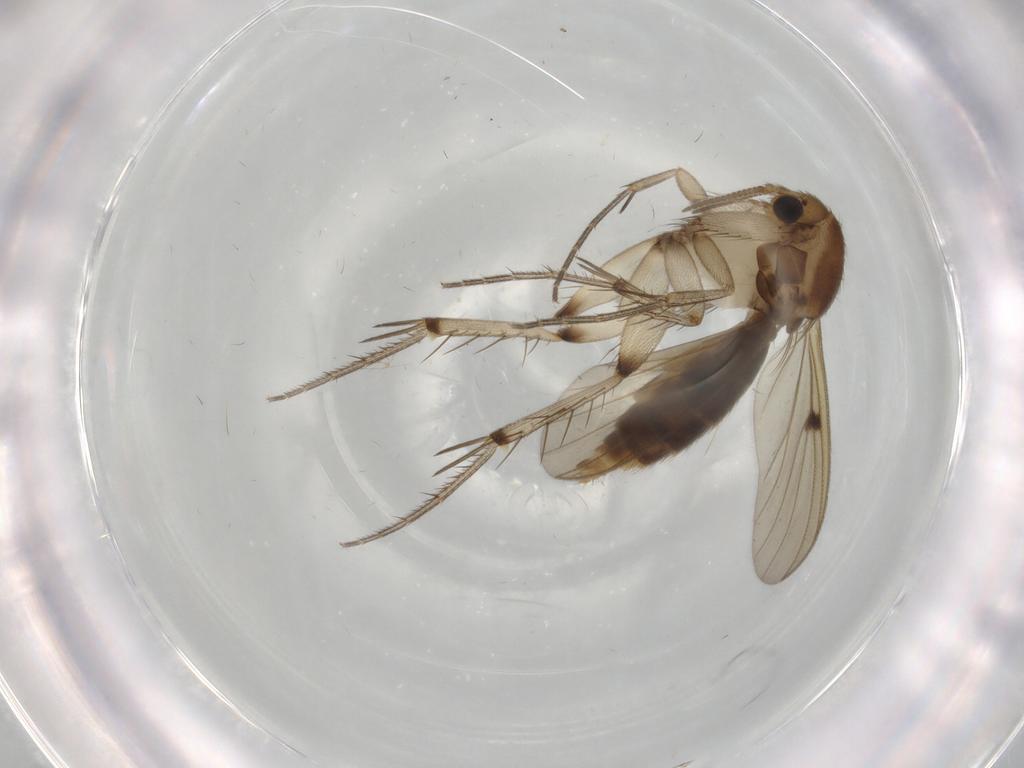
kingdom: Animalia
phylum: Arthropoda
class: Insecta
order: Diptera
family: Mycetophilidae
